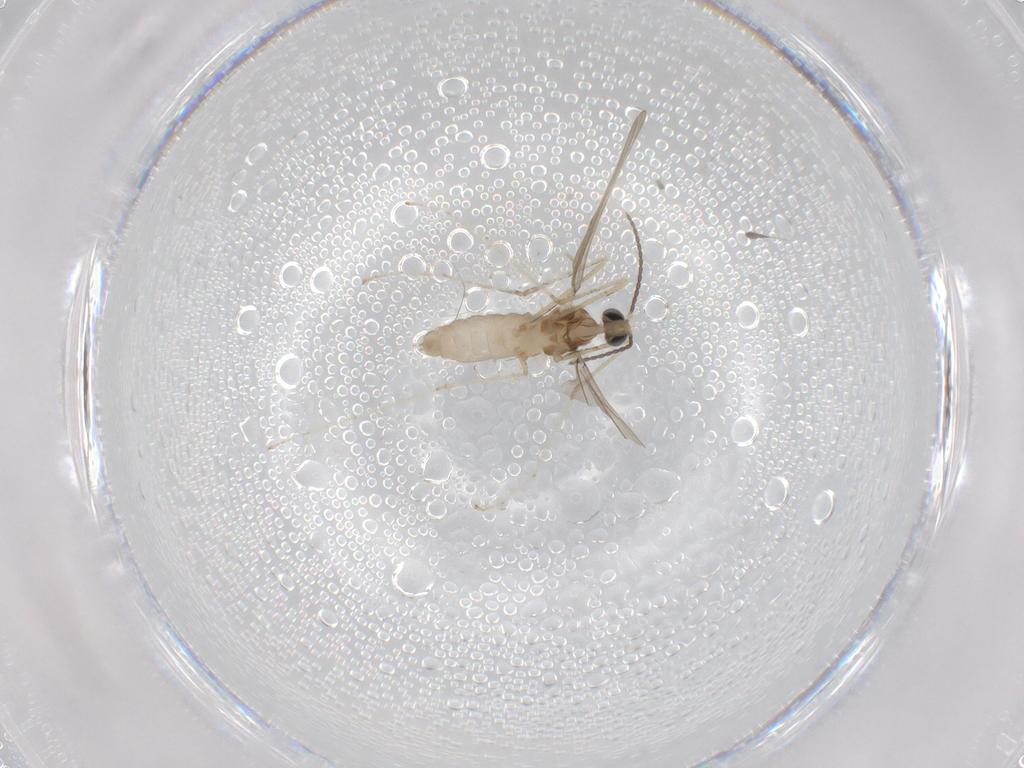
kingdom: Animalia
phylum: Arthropoda
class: Insecta
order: Diptera
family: Cecidomyiidae
